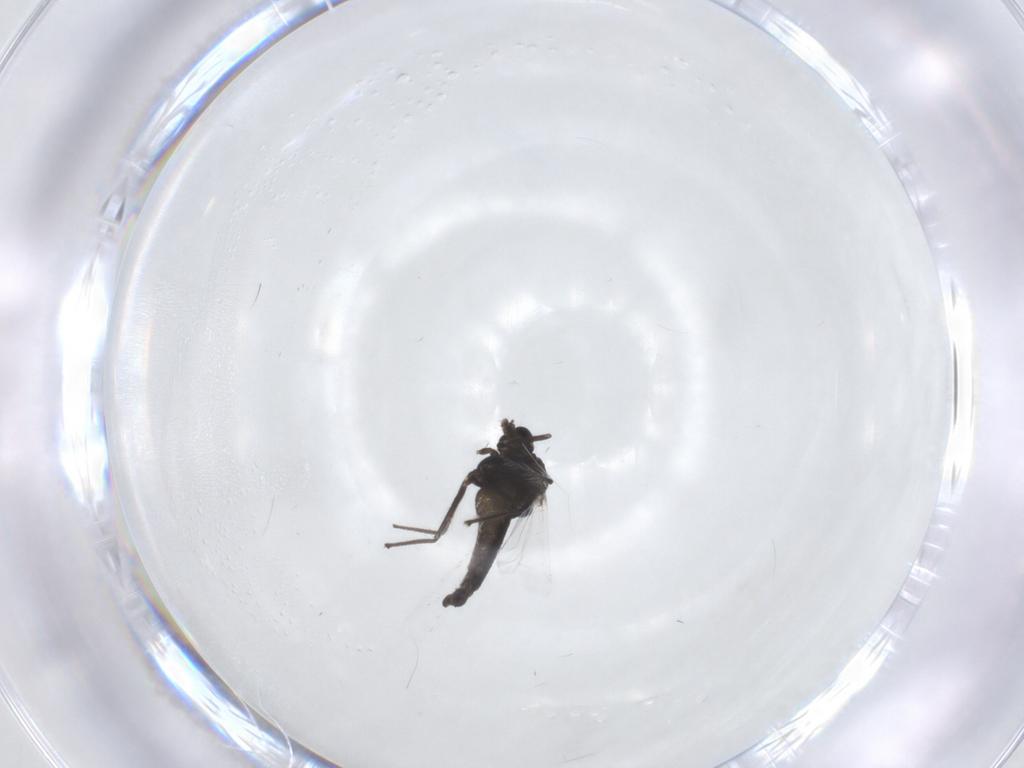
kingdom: Animalia
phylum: Arthropoda
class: Insecta
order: Diptera
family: Chironomidae
